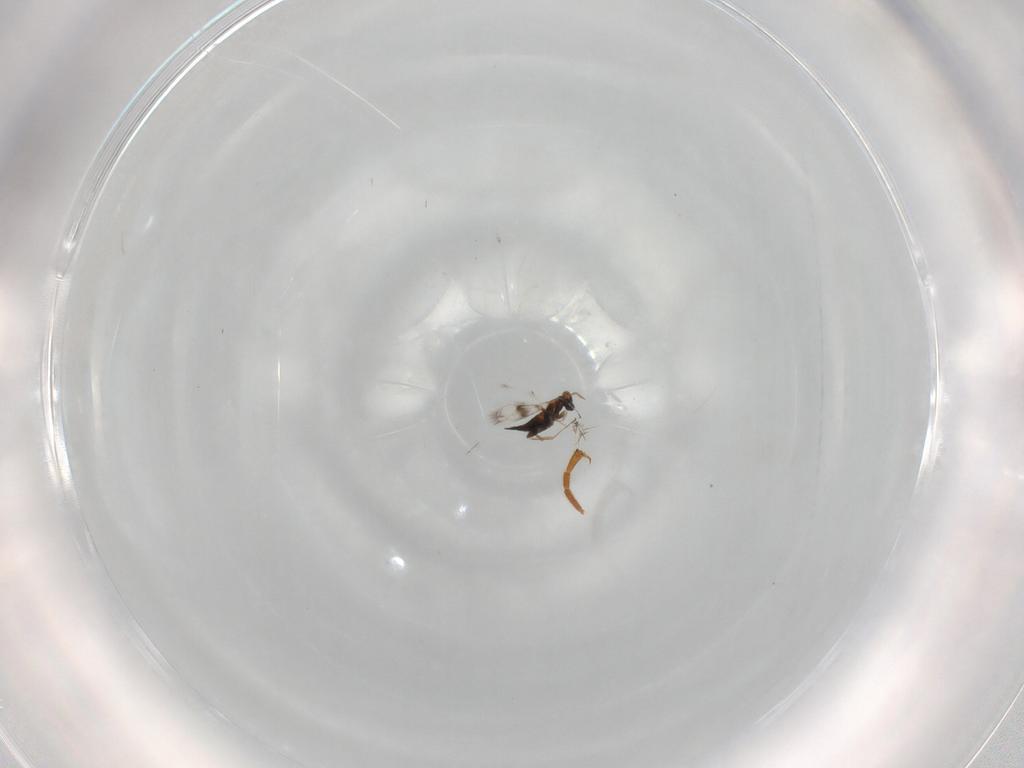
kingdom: Animalia
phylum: Arthropoda
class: Insecta
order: Hymenoptera
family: Formicidae
